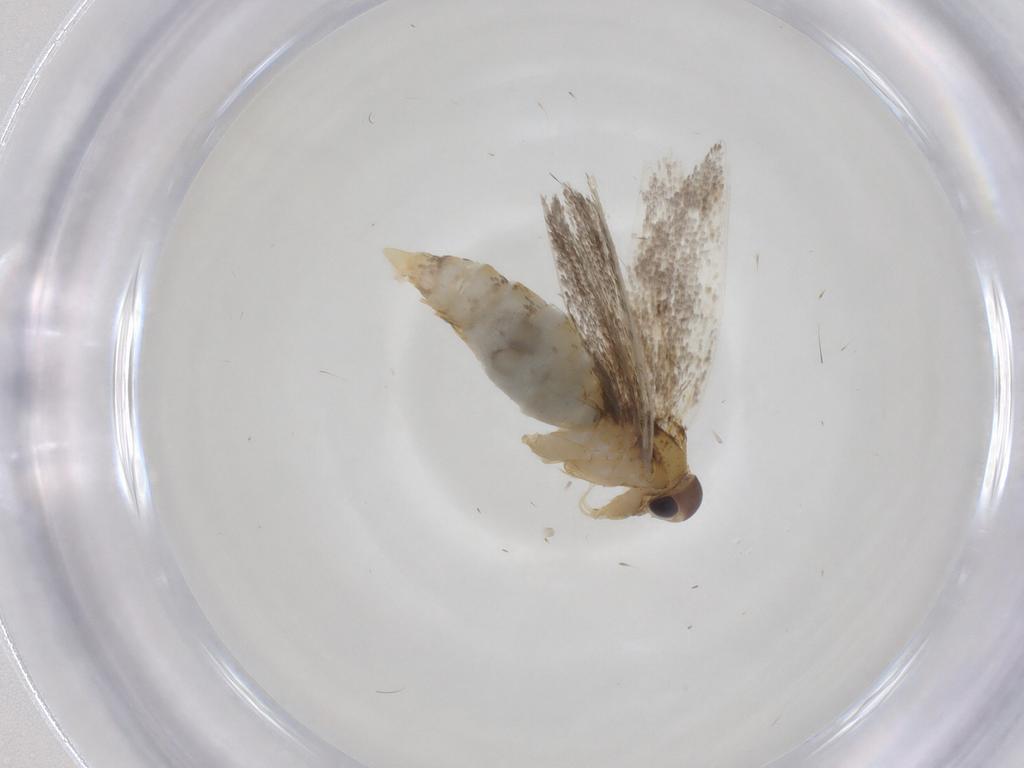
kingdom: Animalia
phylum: Arthropoda
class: Insecta
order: Lepidoptera
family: Oecophoridae
